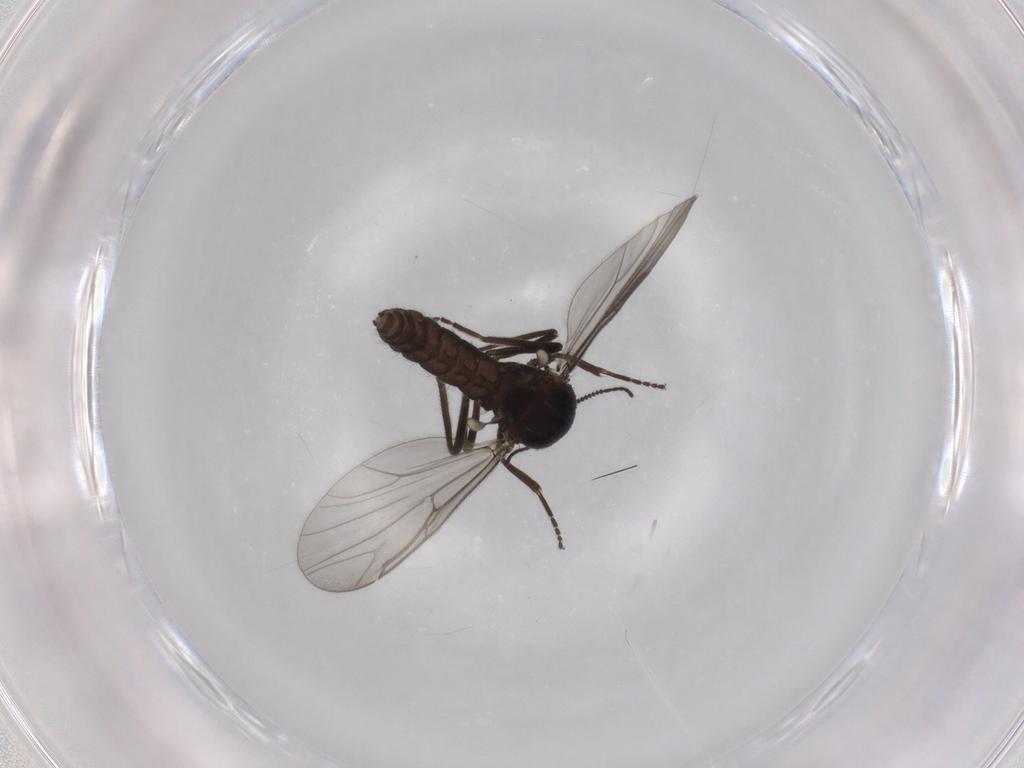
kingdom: Animalia
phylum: Arthropoda
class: Insecta
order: Diptera
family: Ceratopogonidae
